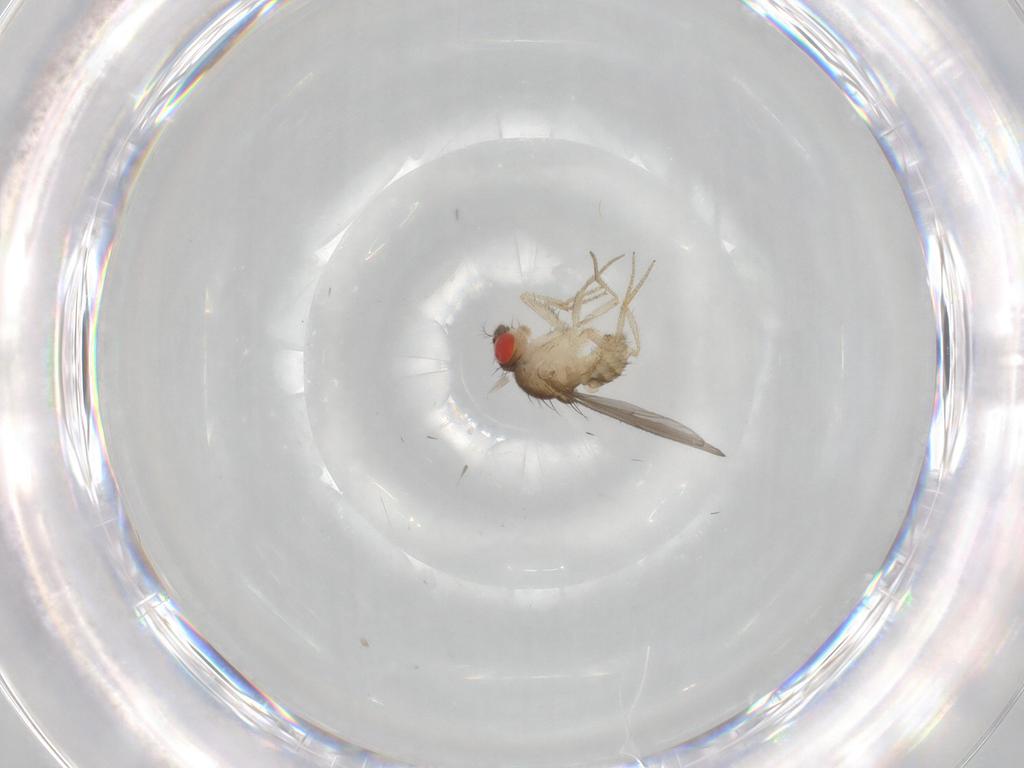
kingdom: Animalia
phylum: Arthropoda
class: Insecta
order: Diptera
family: Drosophilidae
